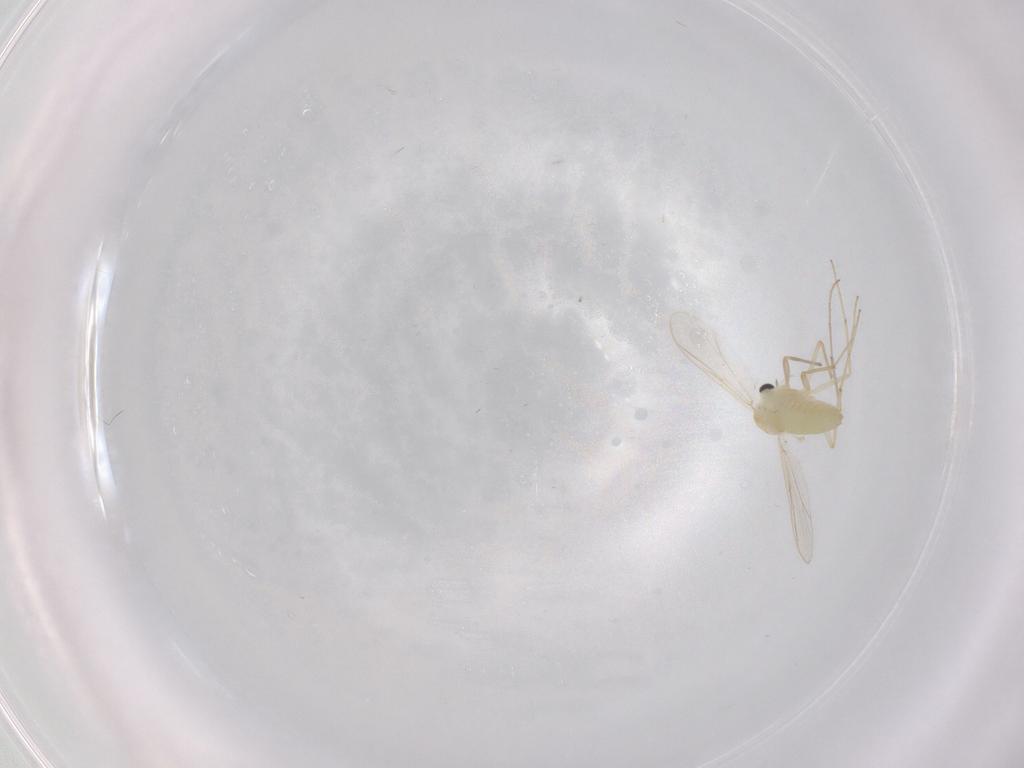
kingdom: Animalia
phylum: Arthropoda
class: Insecta
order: Diptera
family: Chironomidae
